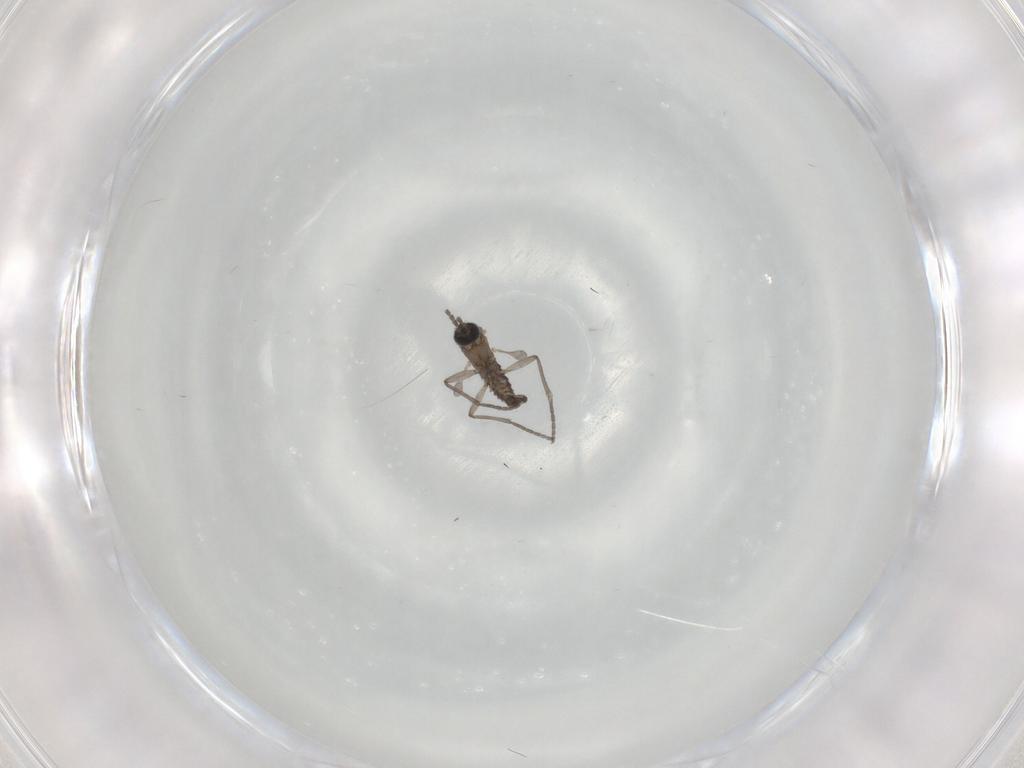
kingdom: Animalia
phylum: Arthropoda
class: Insecta
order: Diptera
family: Sciaridae
